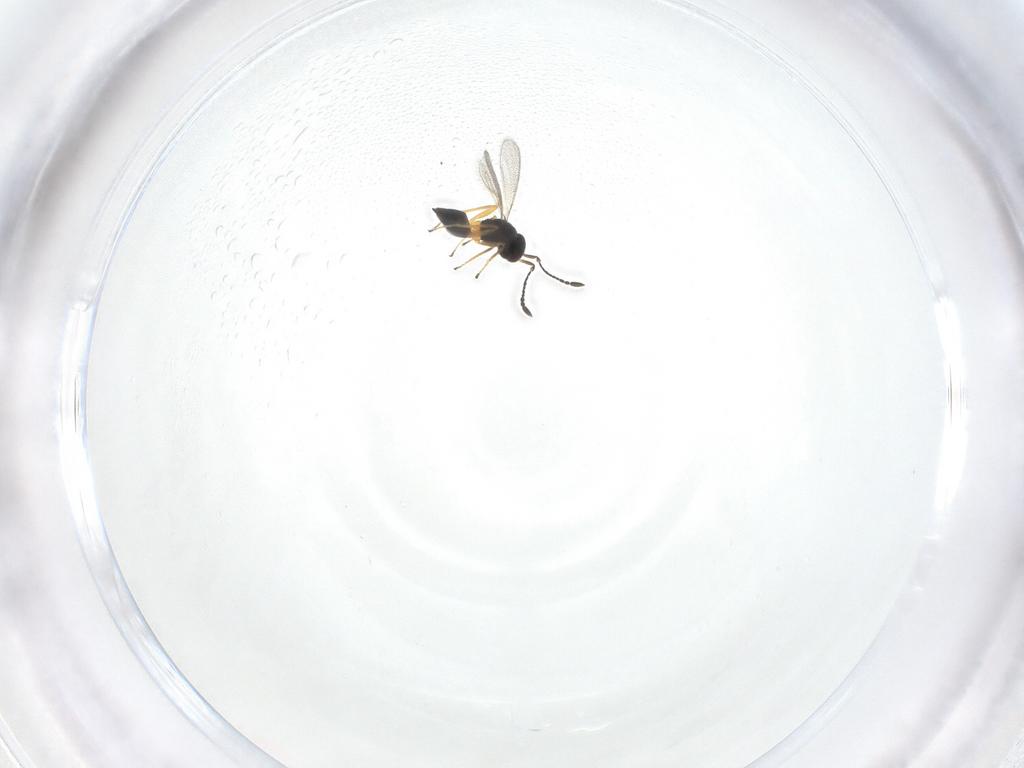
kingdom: Animalia
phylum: Arthropoda
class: Insecta
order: Hymenoptera
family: Mymaridae
